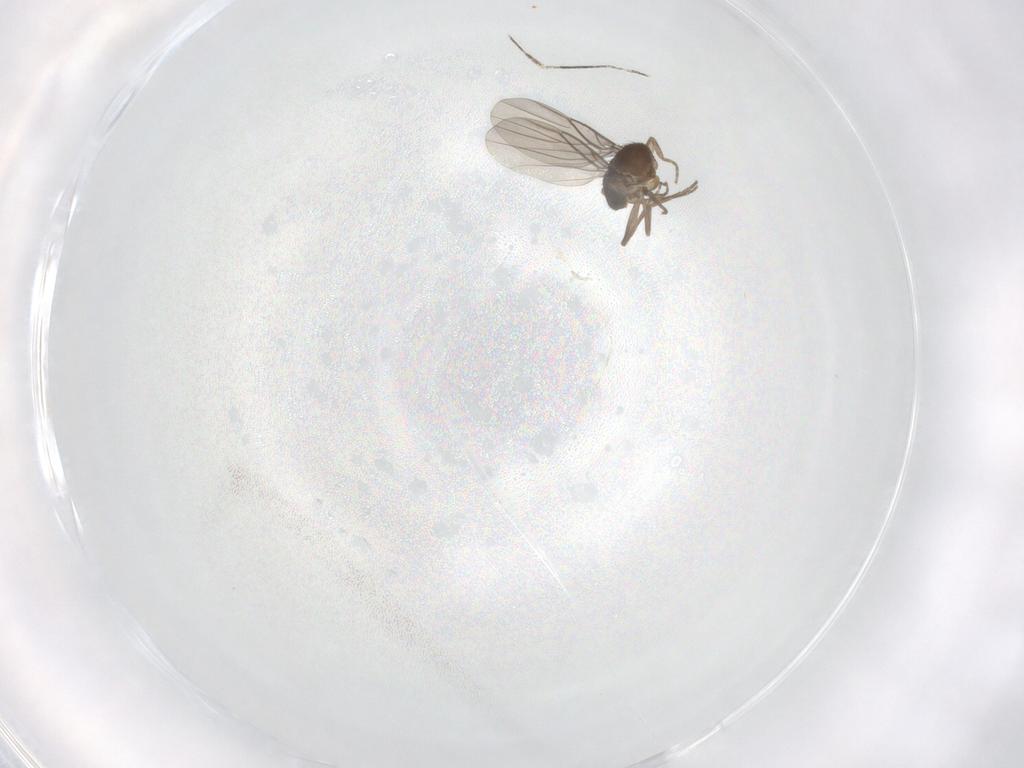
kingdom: Animalia
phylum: Arthropoda
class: Insecta
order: Diptera
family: Cecidomyiidae
